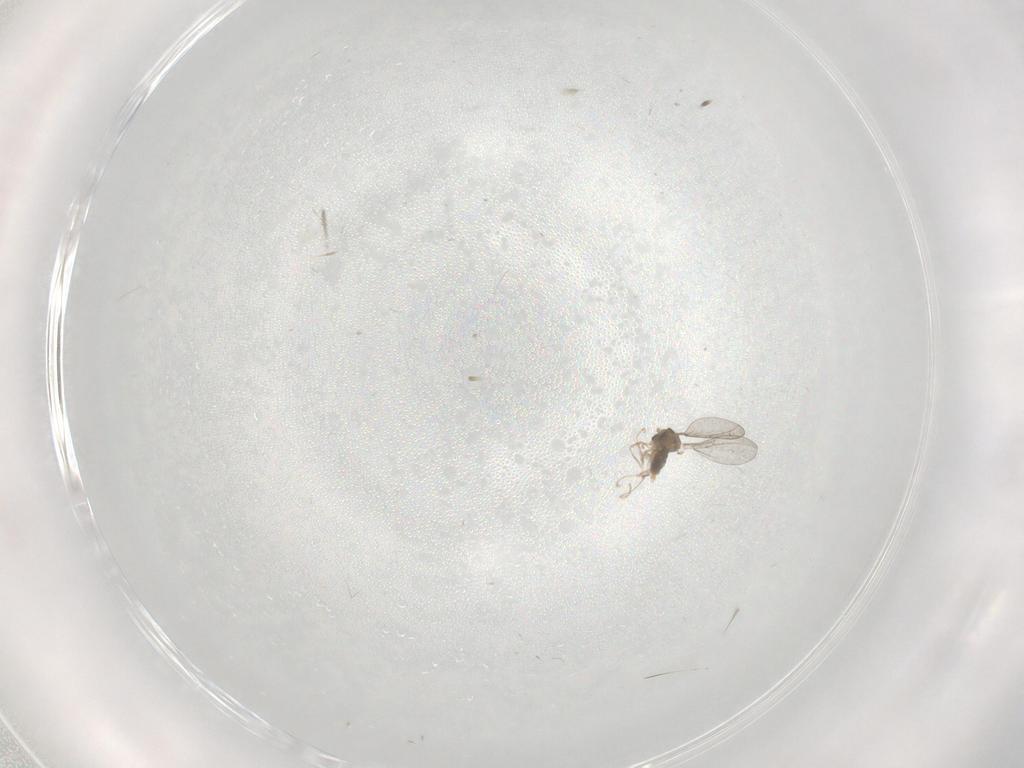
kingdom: Animalia
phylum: Arthropoda
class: Insecta
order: Diptera
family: Cecidomyiidae
